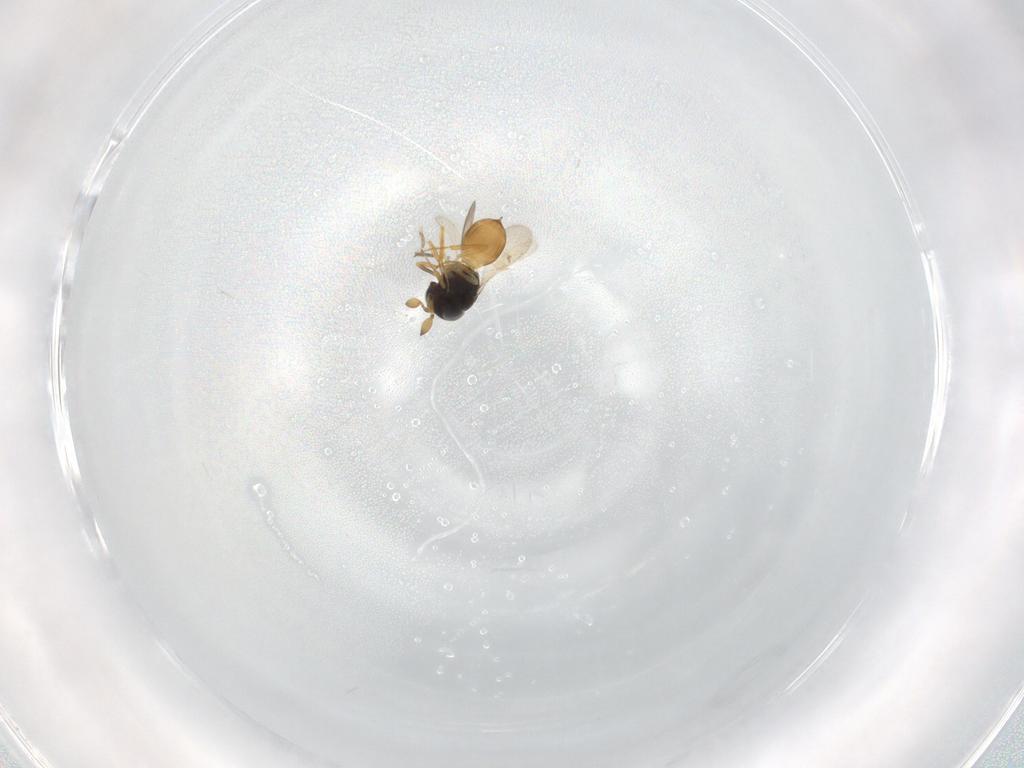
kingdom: Animalia
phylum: Arthropoda
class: Insecta
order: Hymenoptera
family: Scelionidae
